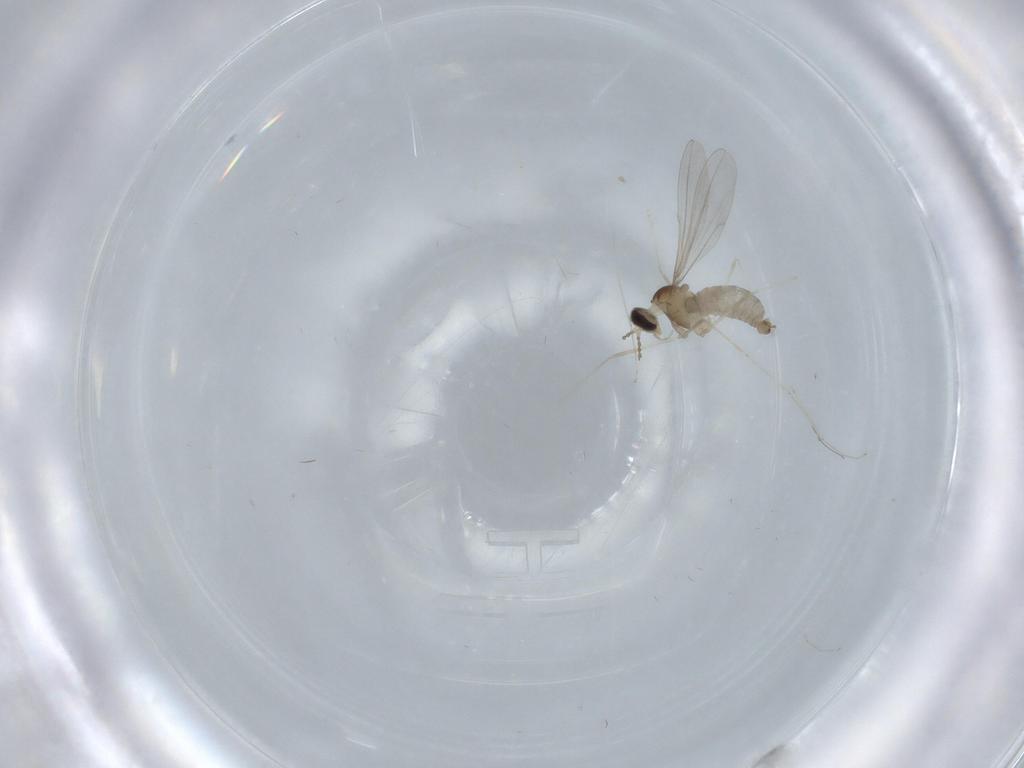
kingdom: Animalia
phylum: Arthropoda
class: Insecta
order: Diptera
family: Cecidomyiidae
